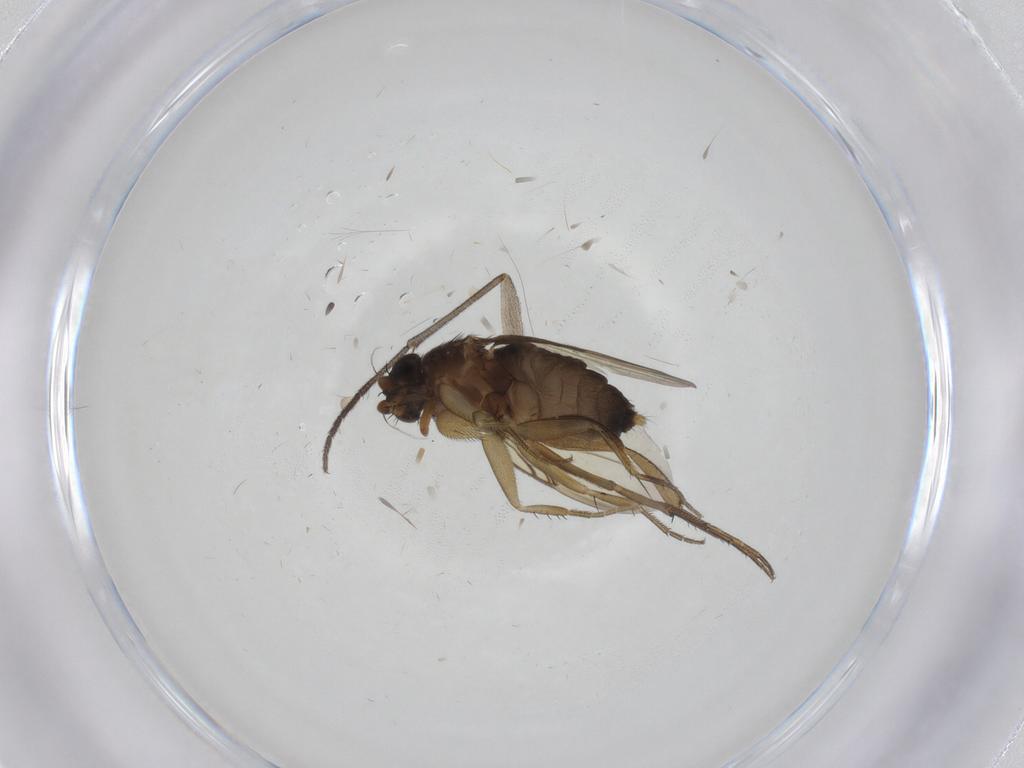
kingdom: Animalia
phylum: Arthropoda
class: Insecta
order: Diptera
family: Phoridae
